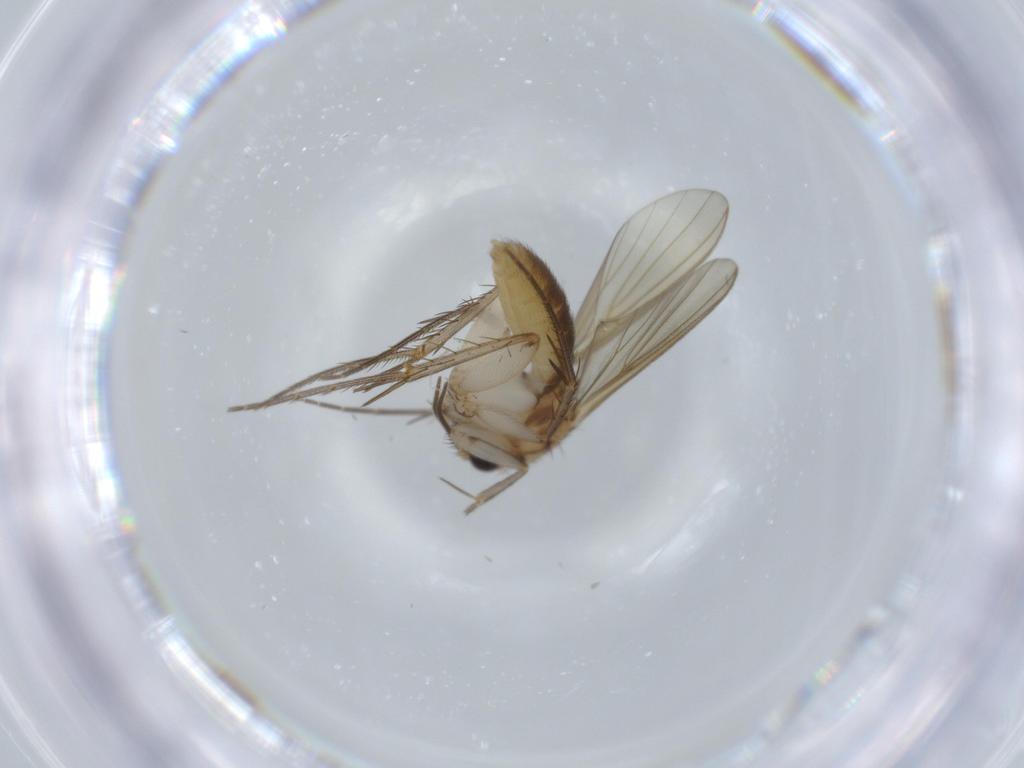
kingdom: Animalia
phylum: Arthropoda
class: Insecta
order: Diptera
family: Mycetophilidae
